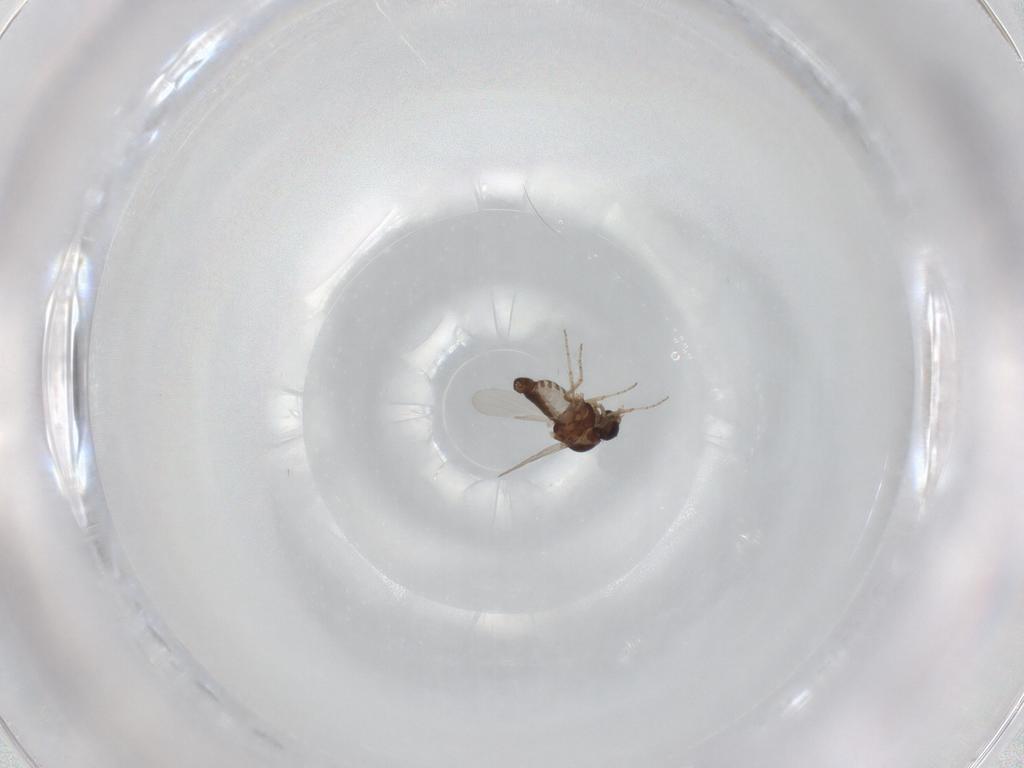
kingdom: Animalia
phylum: Arthropoda
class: Insecta
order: Diptera
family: Ceratopogonidae
